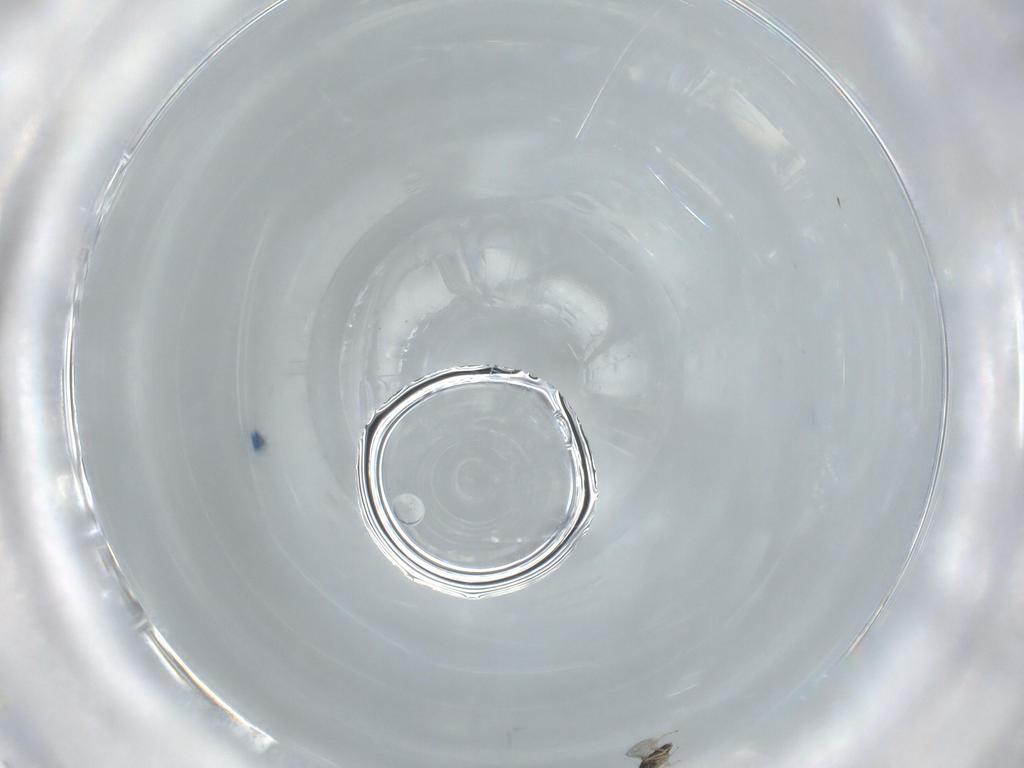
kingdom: Animalia
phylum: Arthropoda
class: Insecta
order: Hymenoptera
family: Encyrtidae
